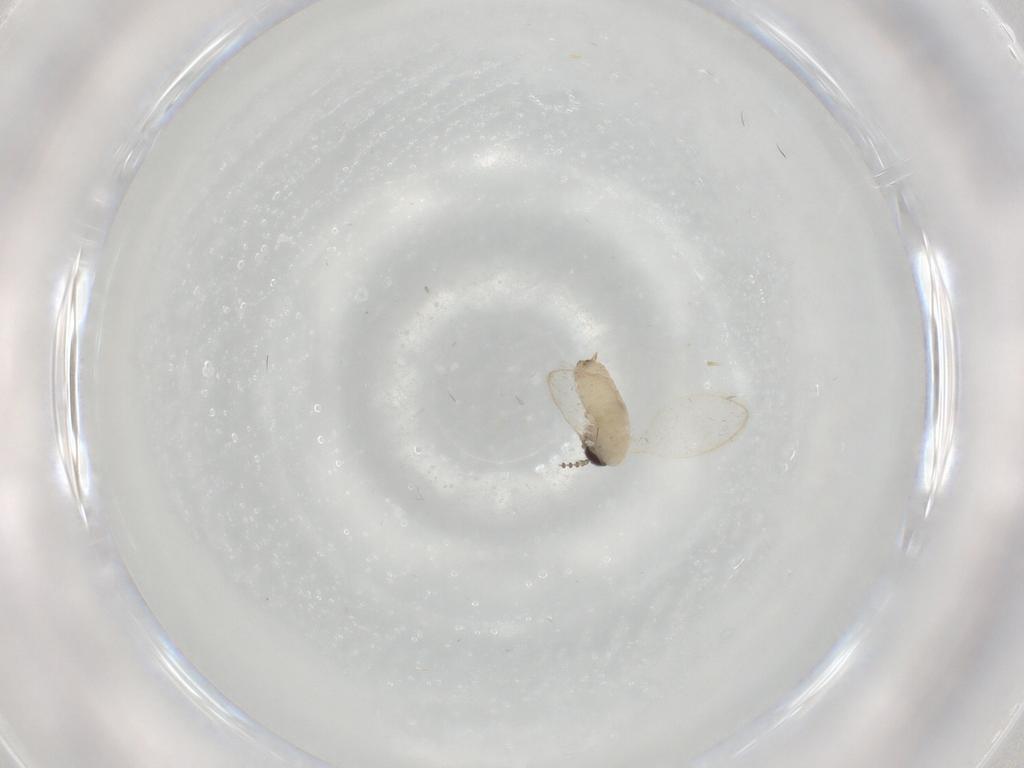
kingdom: Animalia
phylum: Arthropoda
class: Insecta
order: Diptera
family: Psychodidae
